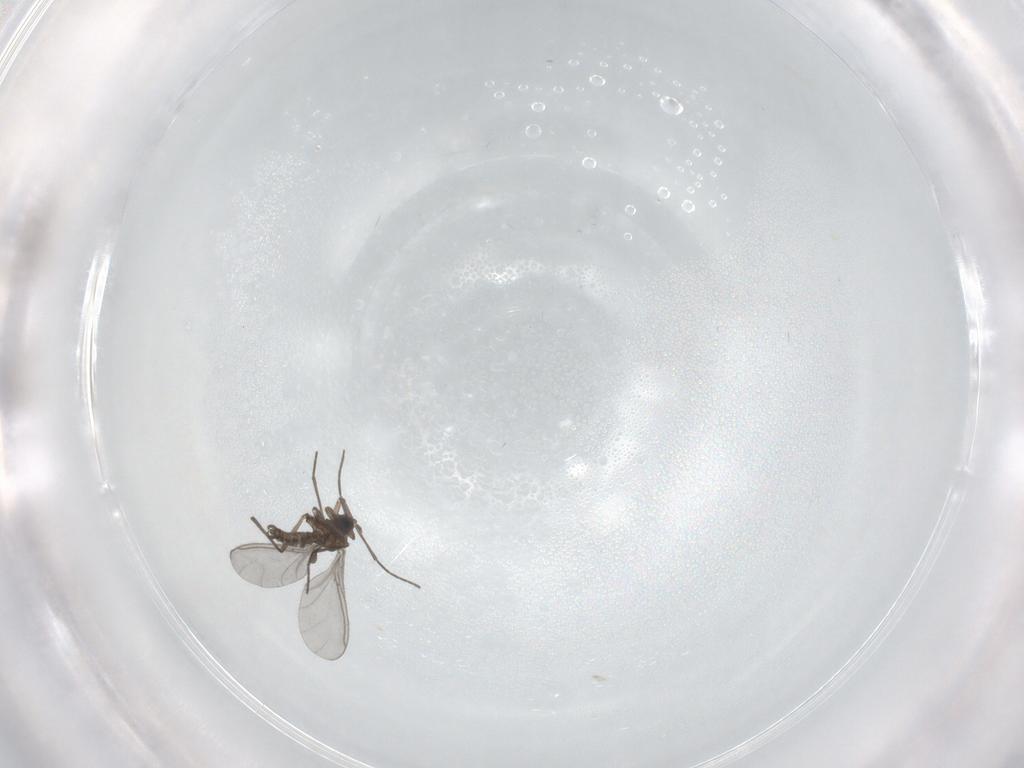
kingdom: Animalia
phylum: Arthropoda
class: Insecta
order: Diptera
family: Sciaridae
